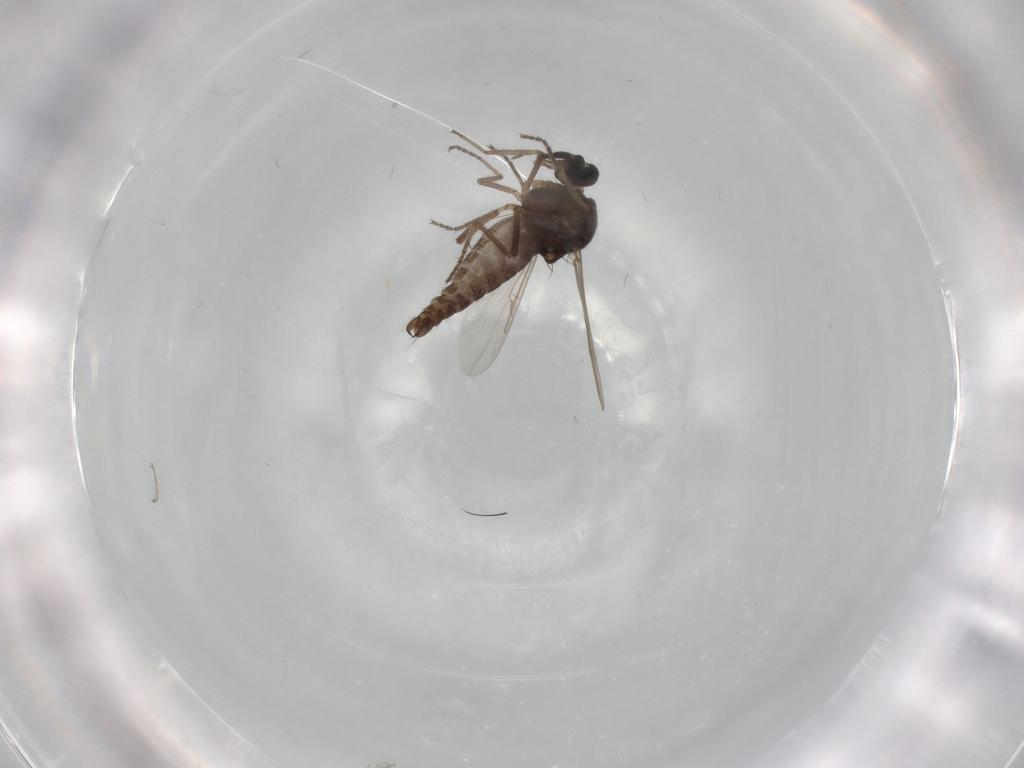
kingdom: Animalia
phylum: Arthropoda
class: Insecta
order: Diptera
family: Ceratopogonidae
